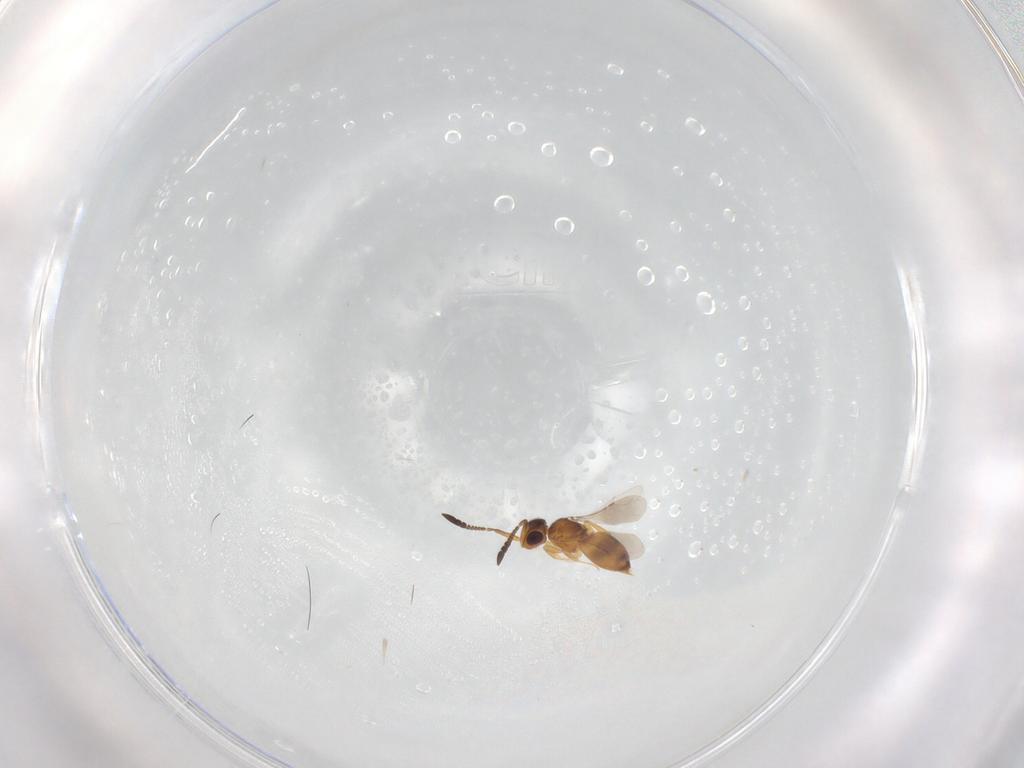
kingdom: Animalia
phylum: Arthropoda
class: Insecta
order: Hymenoptera
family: Ceraphronidae
